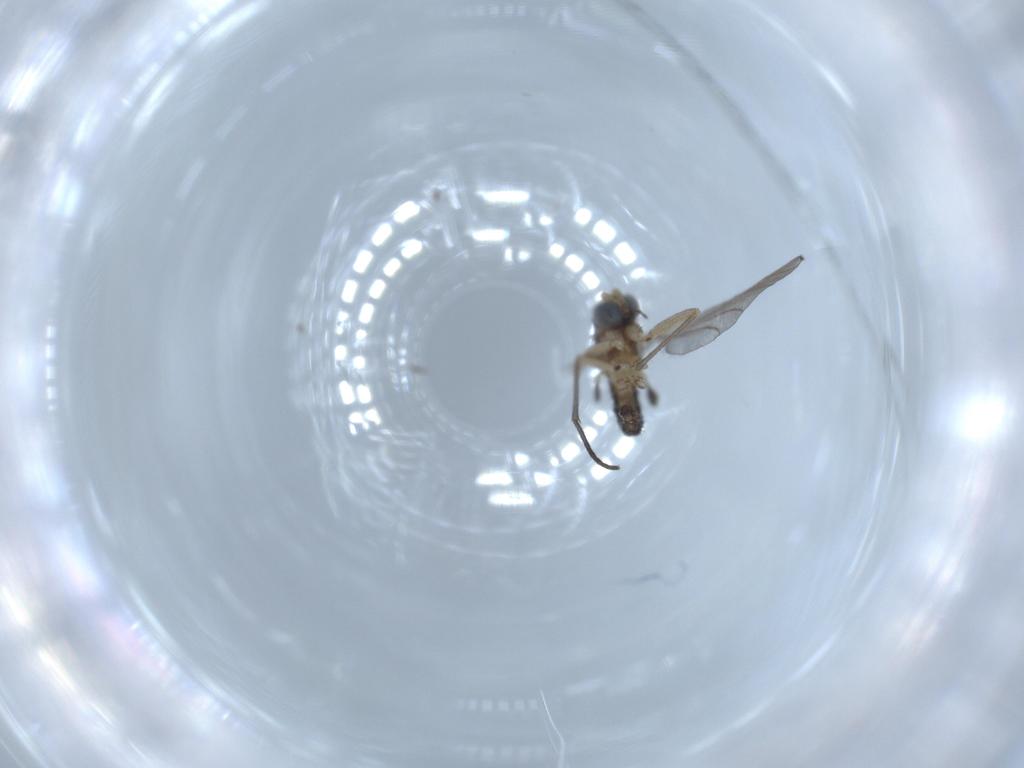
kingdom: Animalia
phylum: Arthropoda
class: Insecta
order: Diptera
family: Sciaridae
